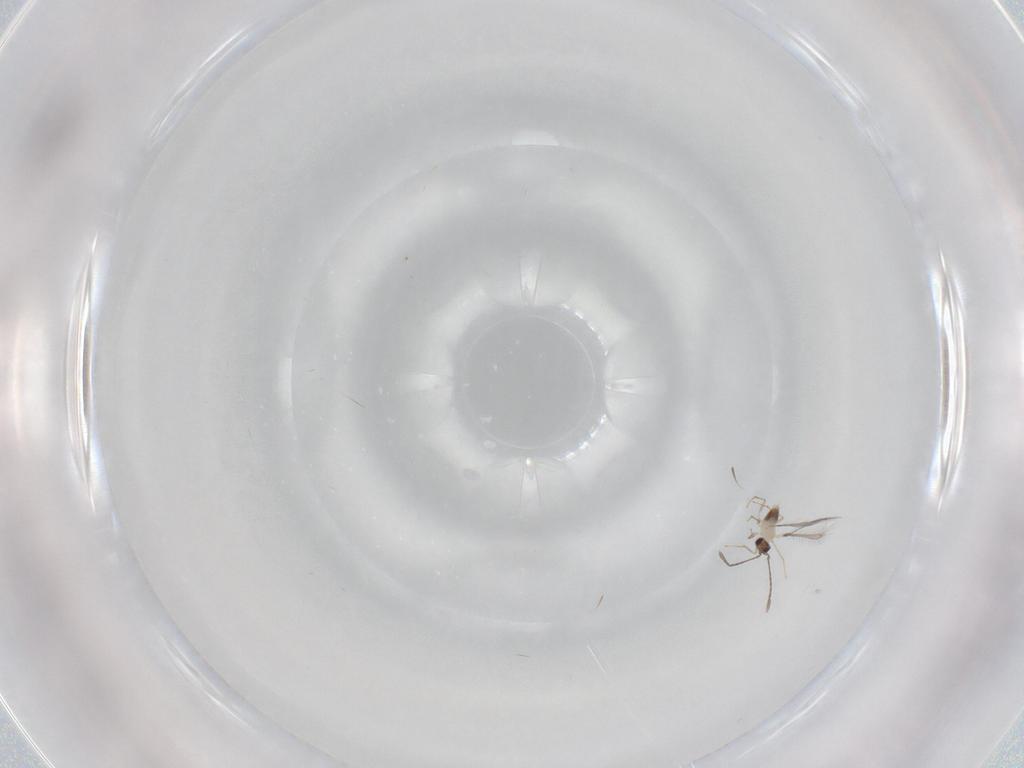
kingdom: Animalia
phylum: Arthropoda
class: Insecta
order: Hymenoptera
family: Mymaridae
